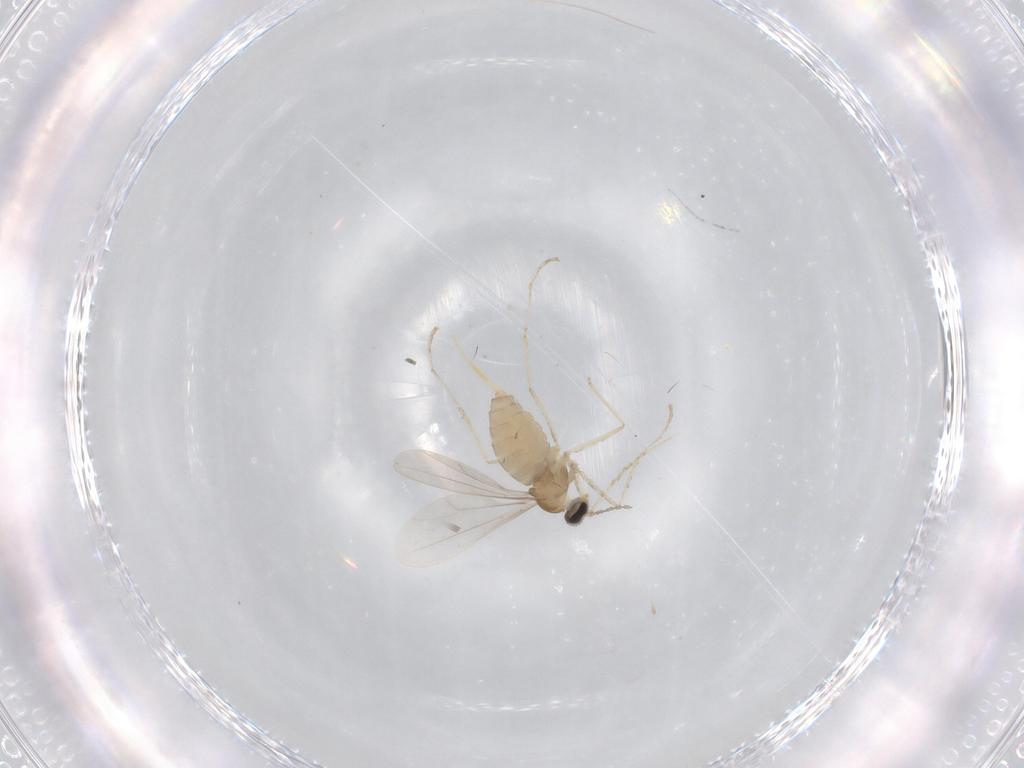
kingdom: Animalia
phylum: Arthropoda
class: Insecta
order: Diptera
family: Cecidomyiidae
